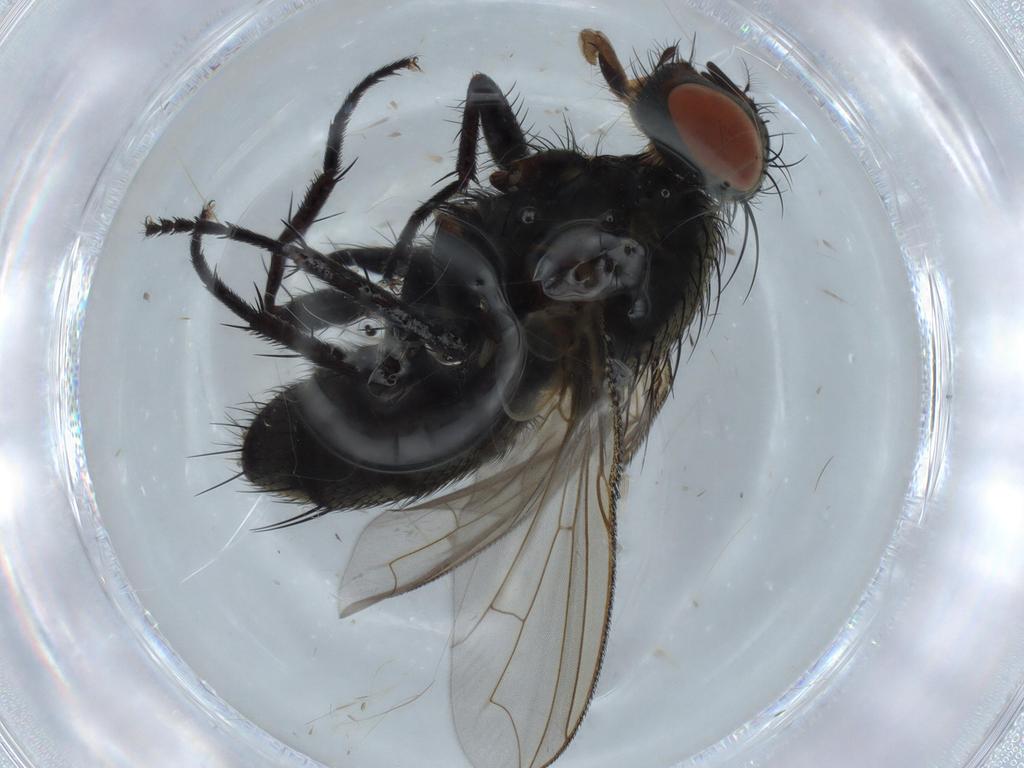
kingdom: Animalia
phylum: Arthropoda
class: Insecta
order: Diptera
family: Sarcophagidae
